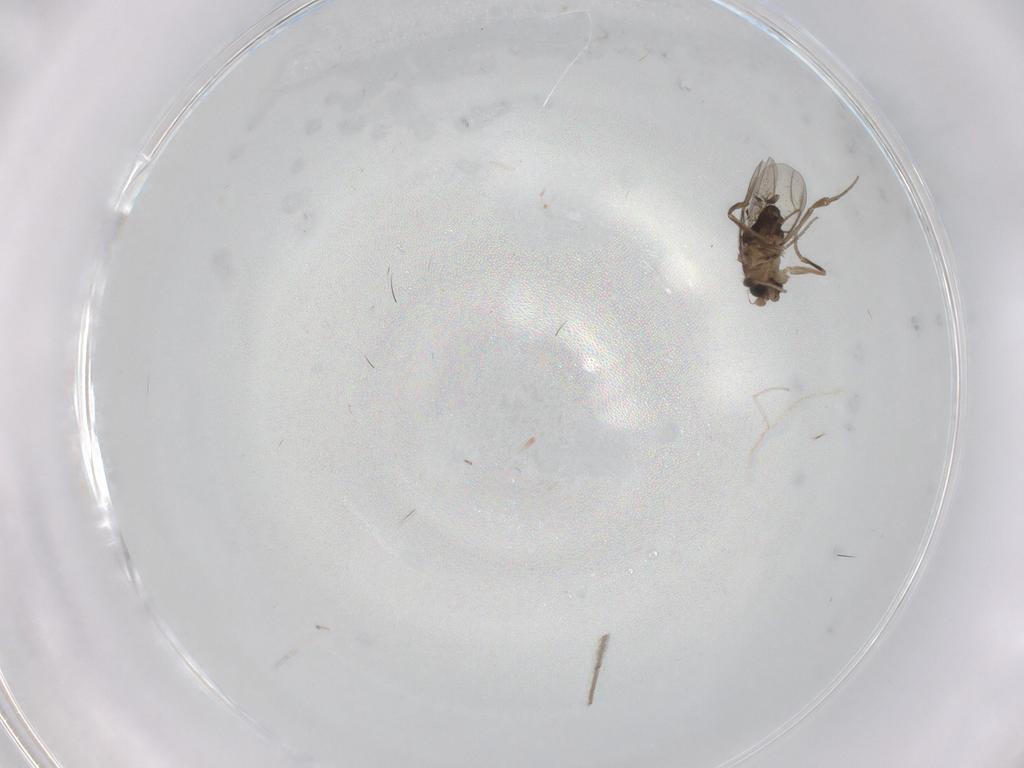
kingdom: Animalia
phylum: Arthropoda
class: Insecta
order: Diptera
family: Phoridae
